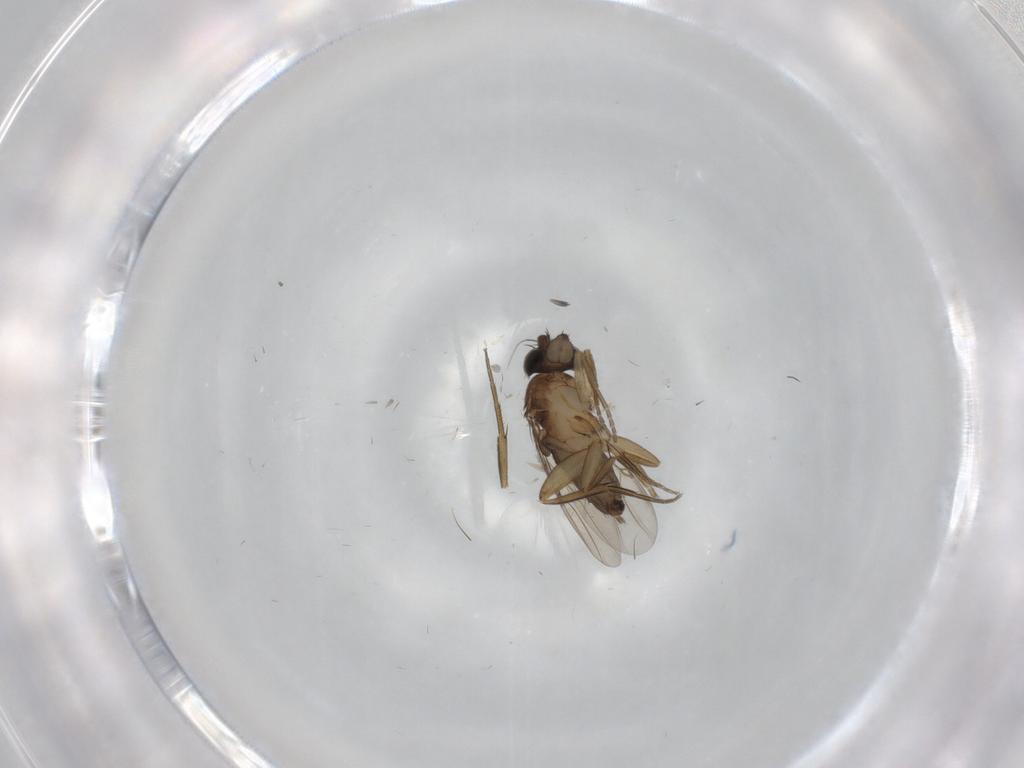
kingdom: Animalia
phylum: Arthropoda
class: Insecta
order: Diptera
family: Phoridae
